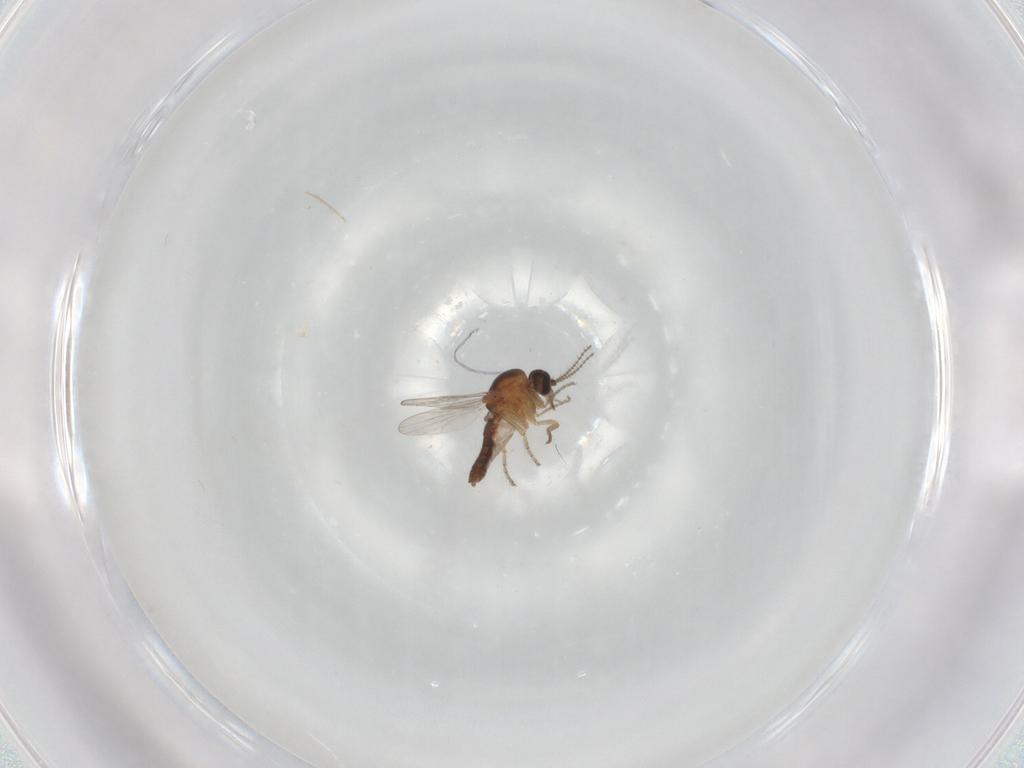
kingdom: Animalia
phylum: Arthropoda
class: Insecta
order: Diptera
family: Ceratopogonidae
